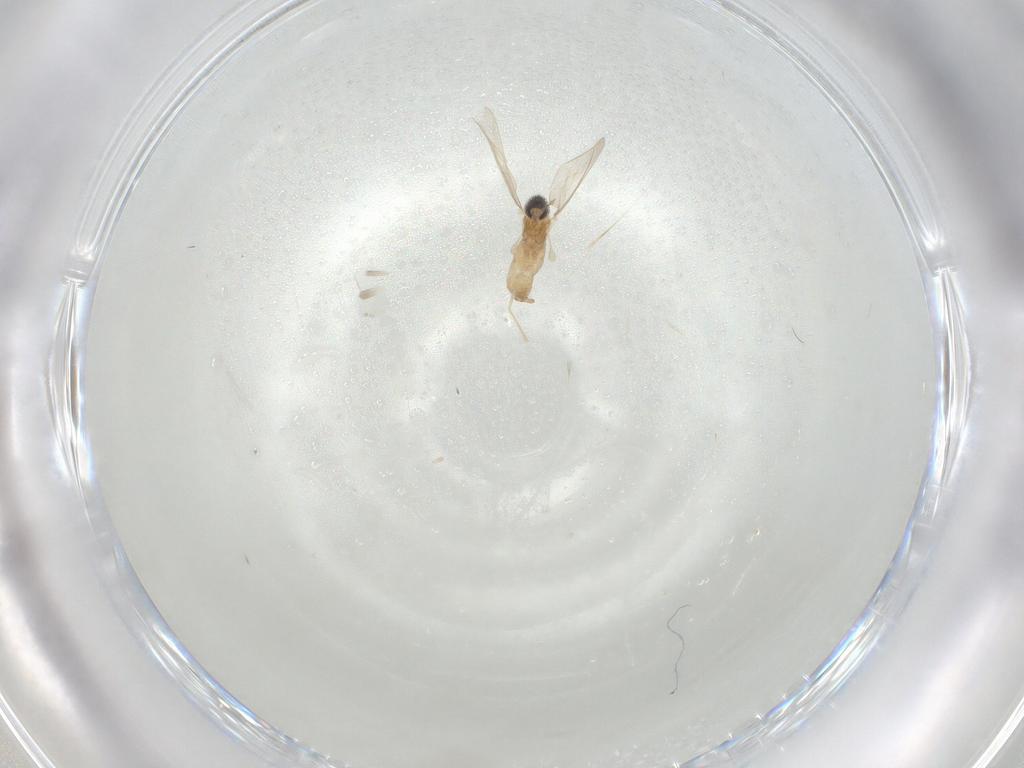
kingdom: Animalia
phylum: Arthropoda
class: Insecta
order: Diptera
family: Cecidomyiidae
